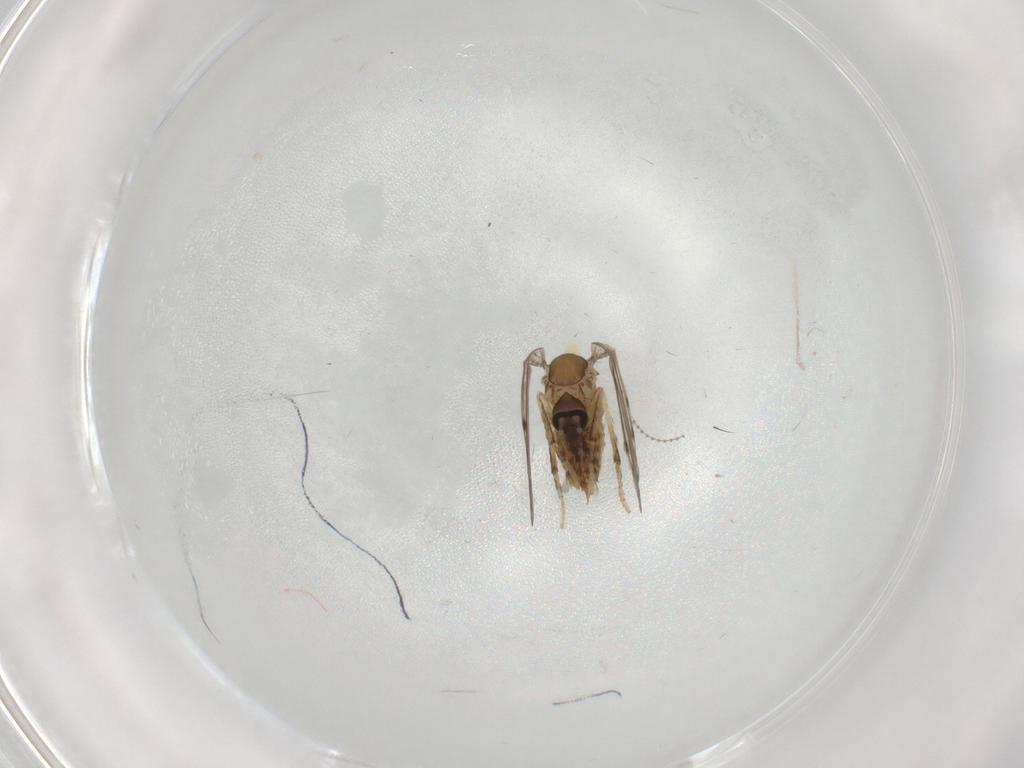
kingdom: Animalia
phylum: Arthropoda
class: Insecta
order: Diptera
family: Cecidomyiidae
